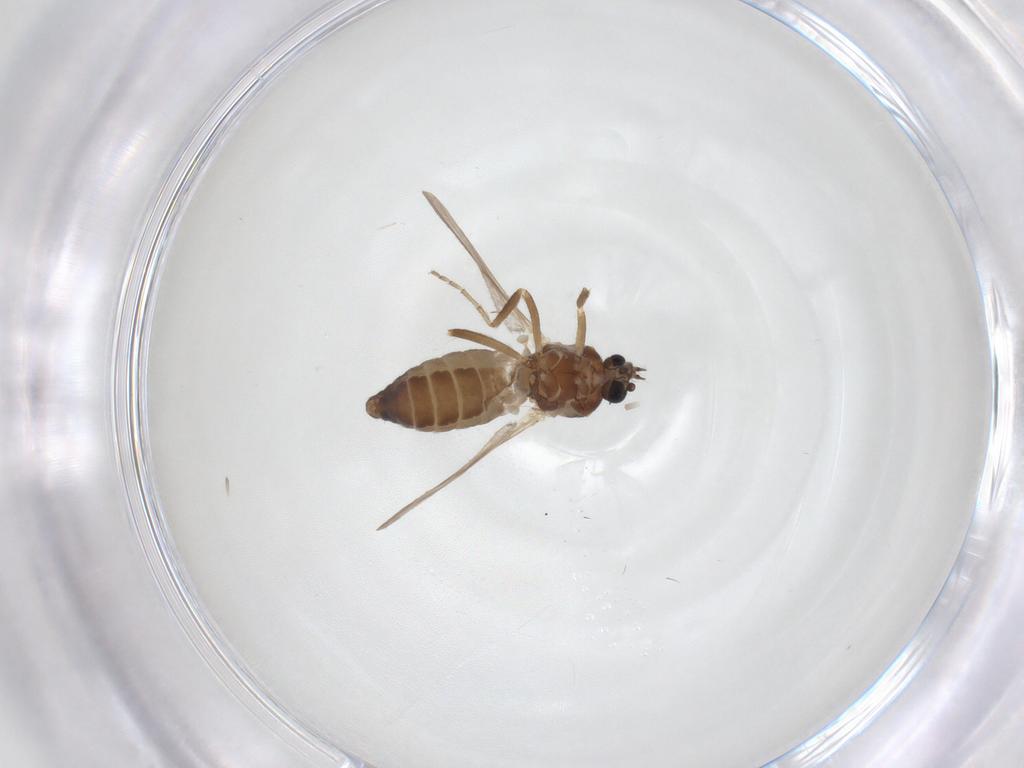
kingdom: Animalia
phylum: Arthropoda
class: Insecta
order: Diptera
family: Ceratopogonidae
